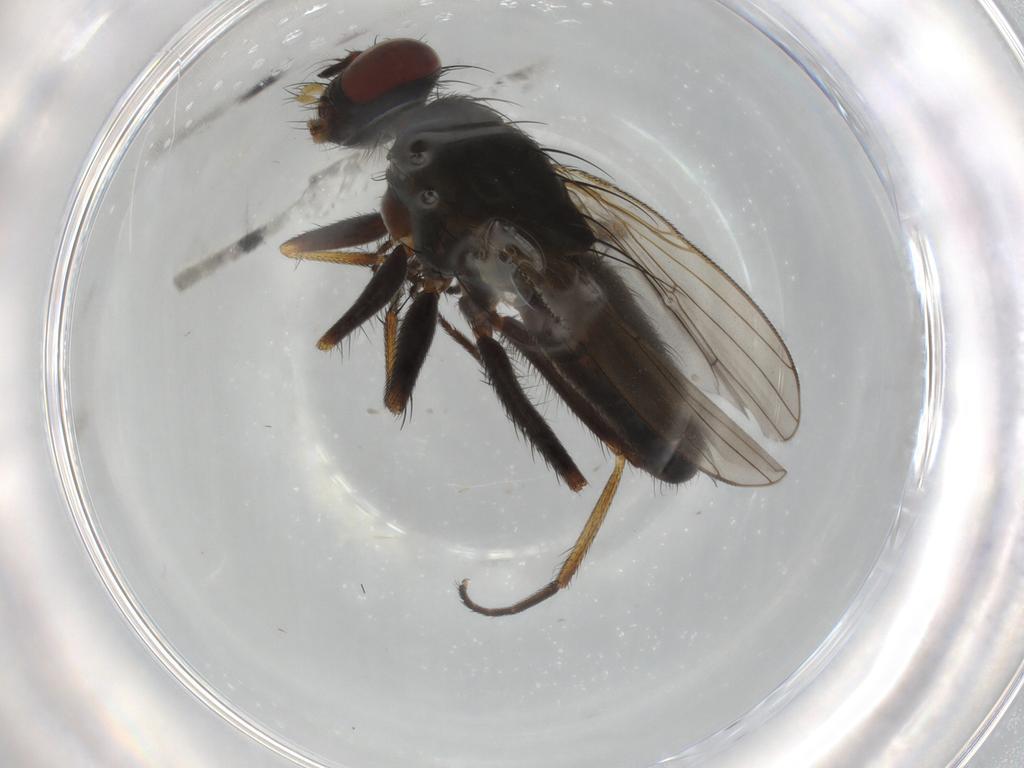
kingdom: Animalia
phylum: Arthropoda
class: Insecta
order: Diptera
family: Muscidae
